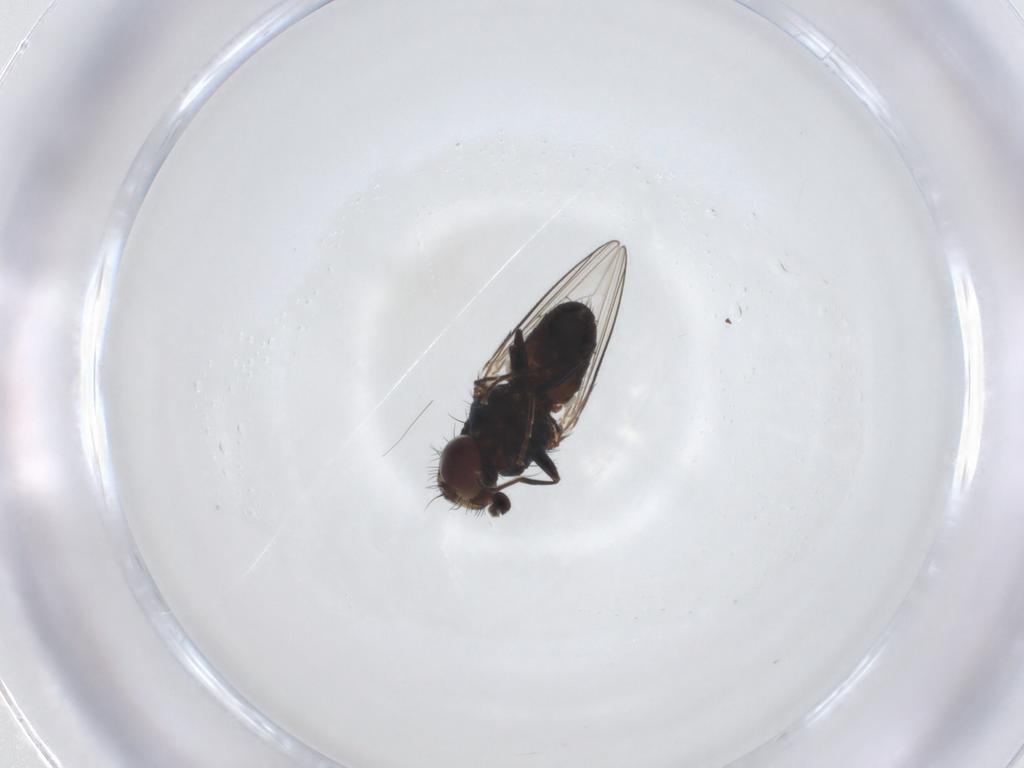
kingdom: Animalia
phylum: Arthropoda
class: Insecta
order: Diptera
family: Carnidae
